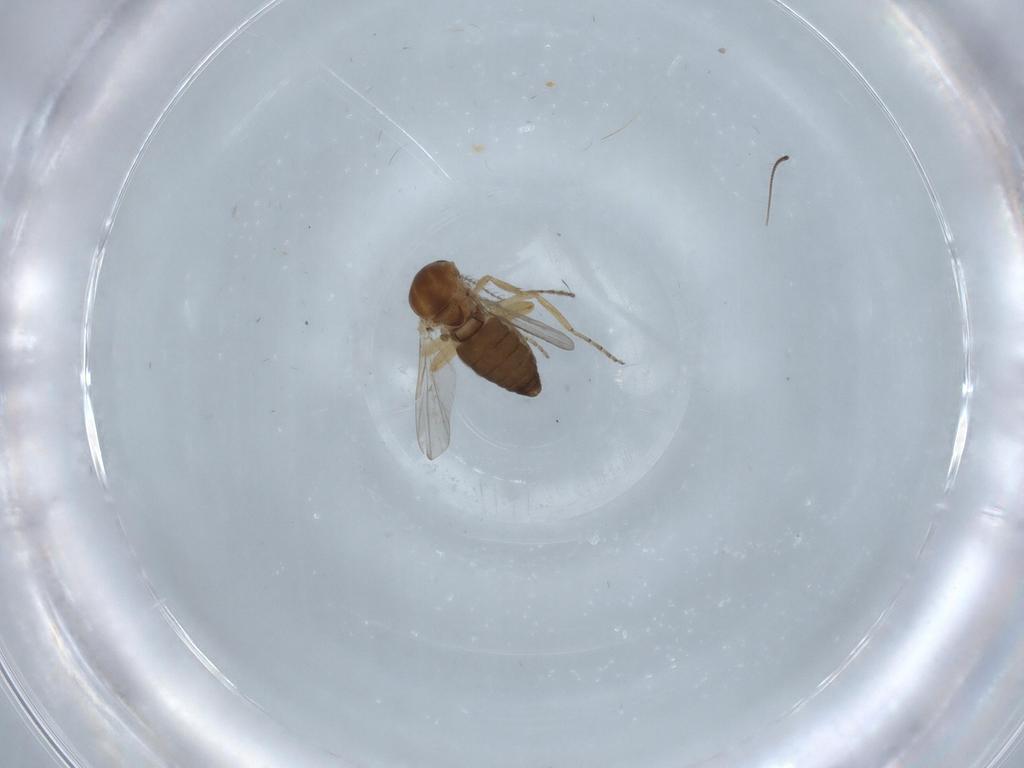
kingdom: Animalia
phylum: Arthropoda
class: Insecta
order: Diptera
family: Cecidomyiidae
